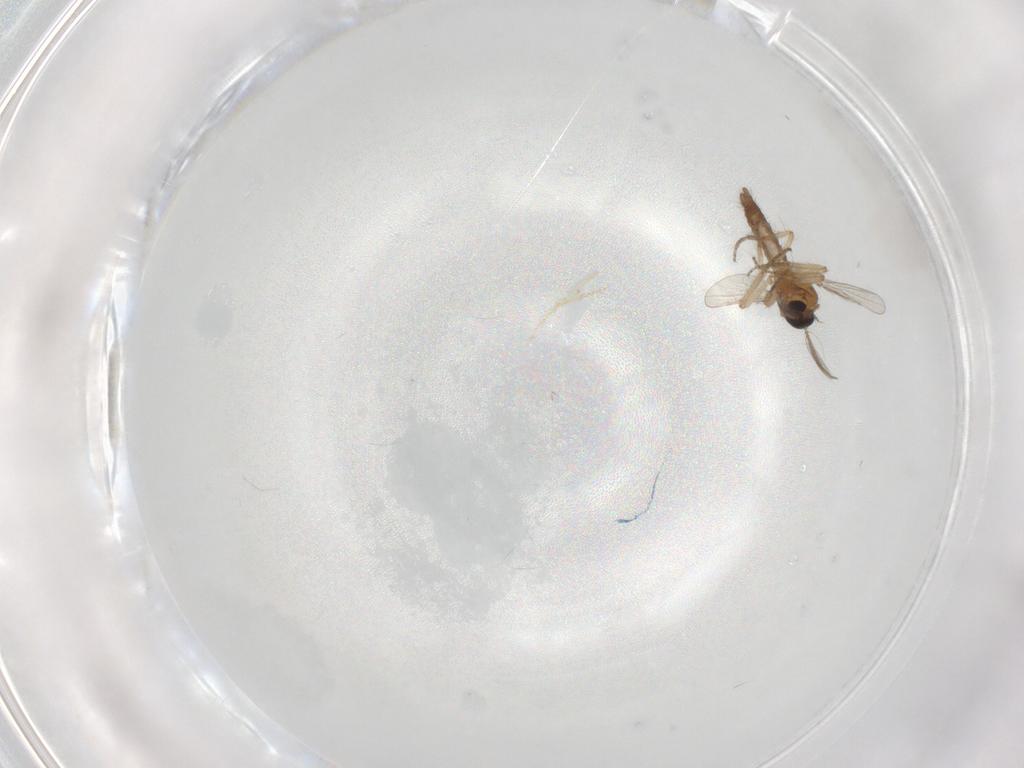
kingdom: Animalia
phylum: Arthropoda
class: Insecta
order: Diptera
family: Ceratopogonidae
